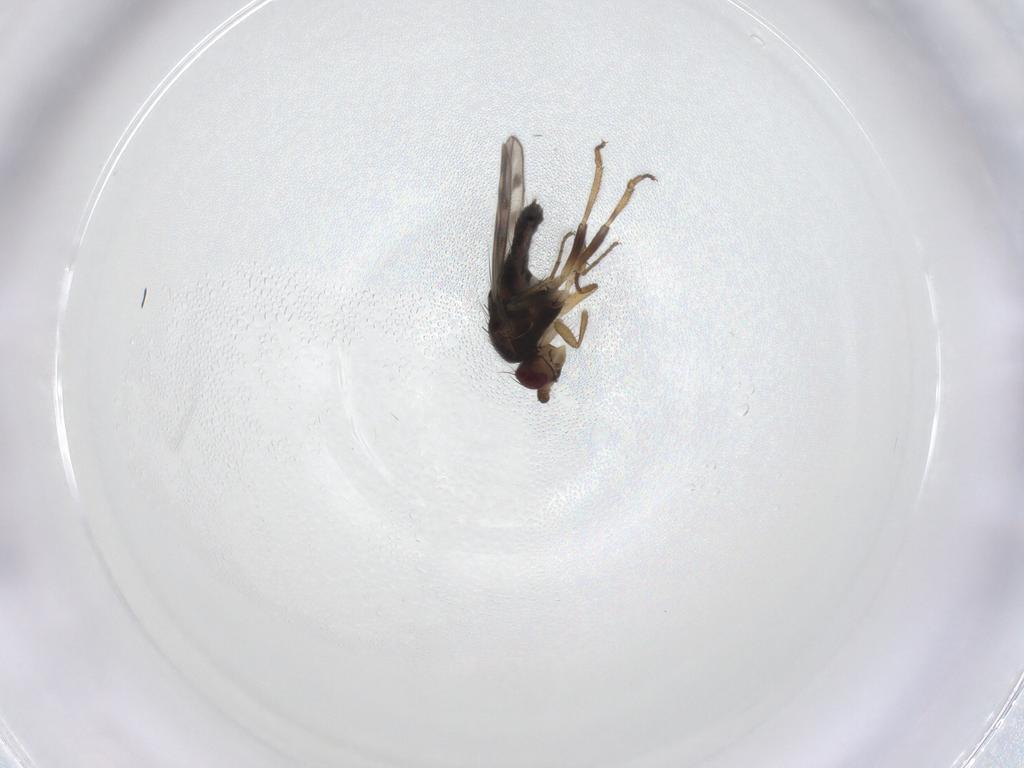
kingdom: Animalia
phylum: Arthropoda
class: Insecta
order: Diptera
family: Sphaeroceridae
